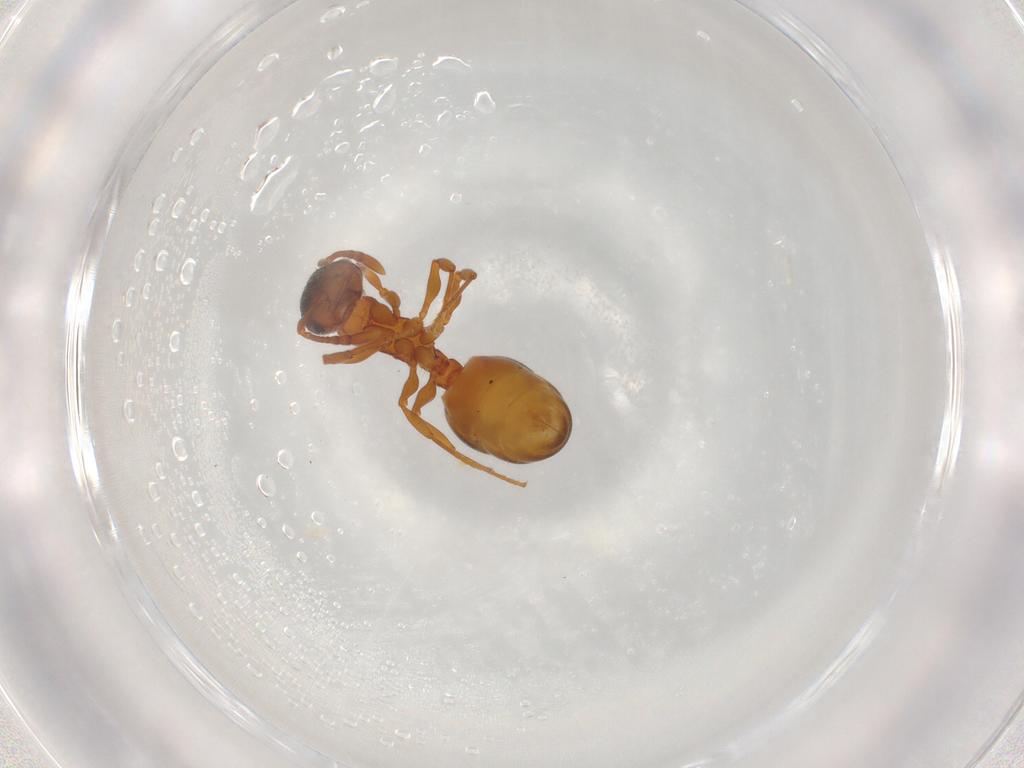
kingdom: Animalia
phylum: Arthropoda
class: Insecta
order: Hymenoptera
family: Formicidae
